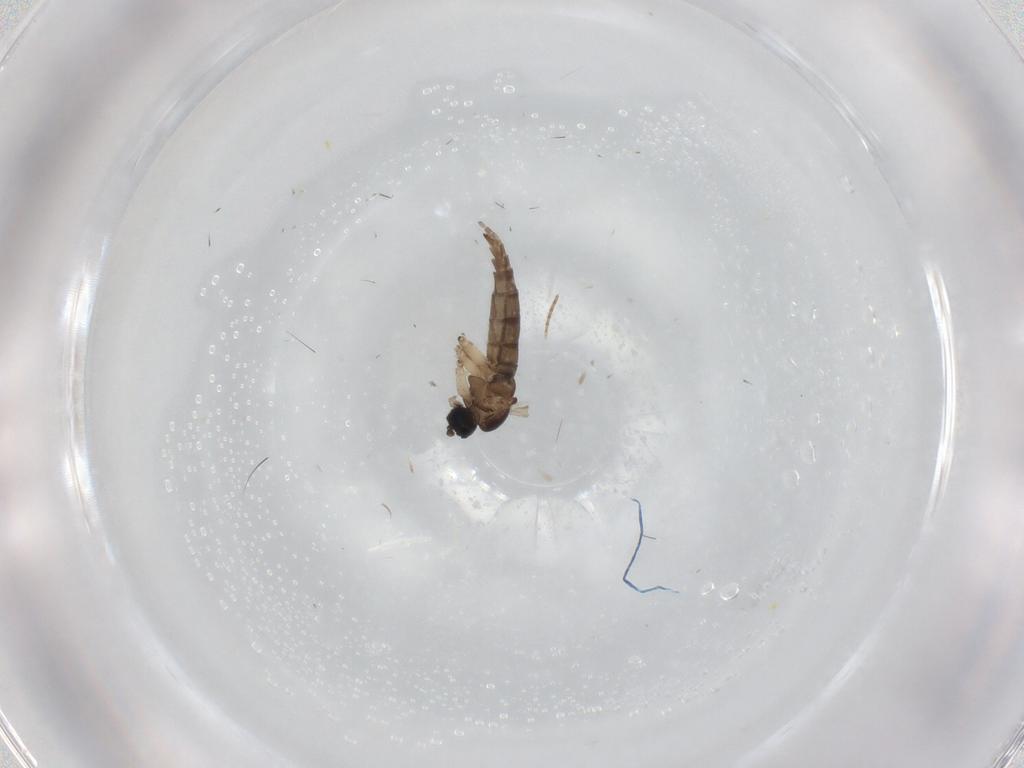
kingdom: Animalia
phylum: Arthropoda
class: Insecta
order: Diptera
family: Sciaridae
